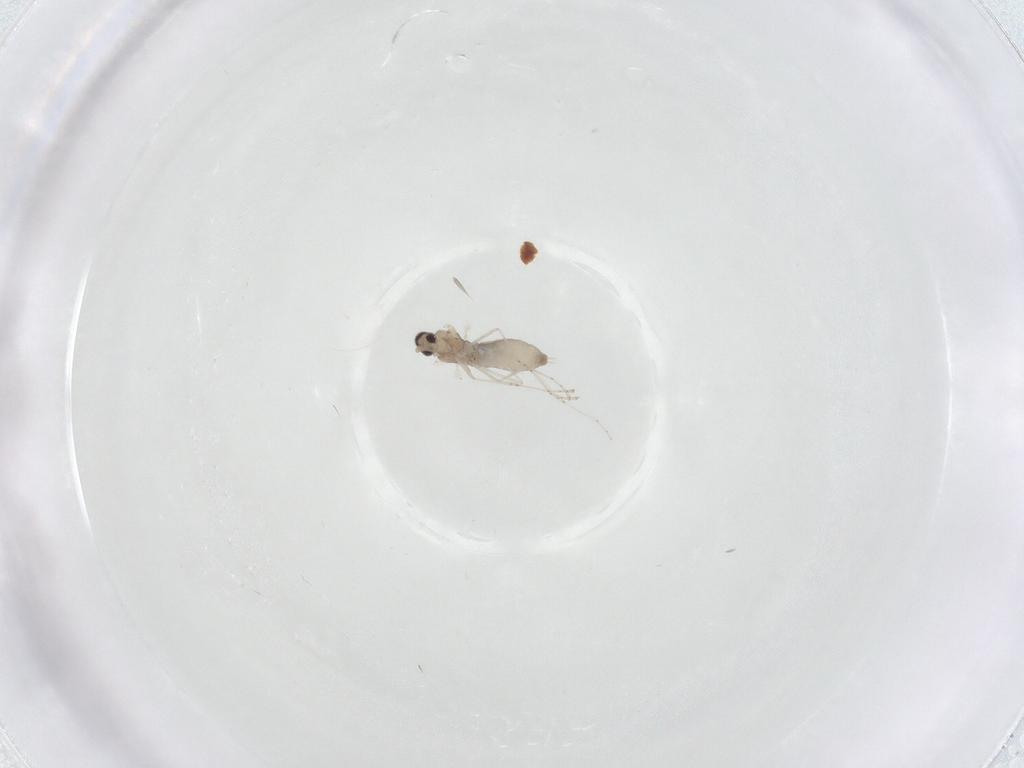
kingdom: Animalia
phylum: Arthropoda
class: Insecta
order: Diptera
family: Cecidomyiidae
